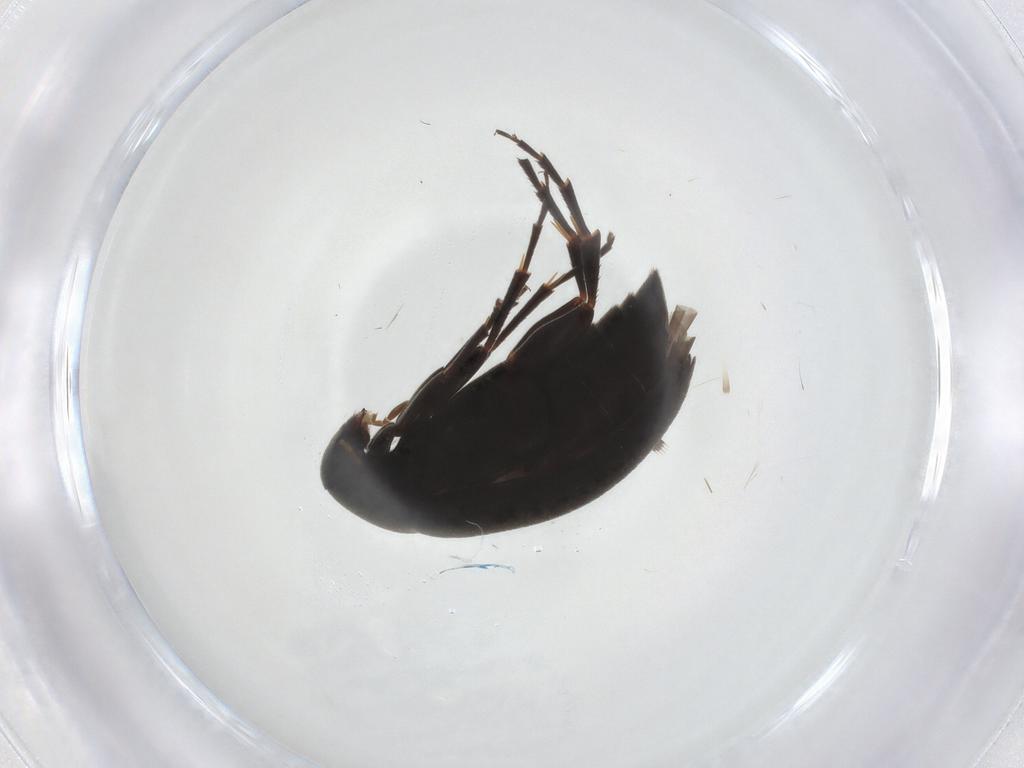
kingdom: Animalia
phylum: Arthropoda
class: Insecta
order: Coleoptera
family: Scraptiidae
